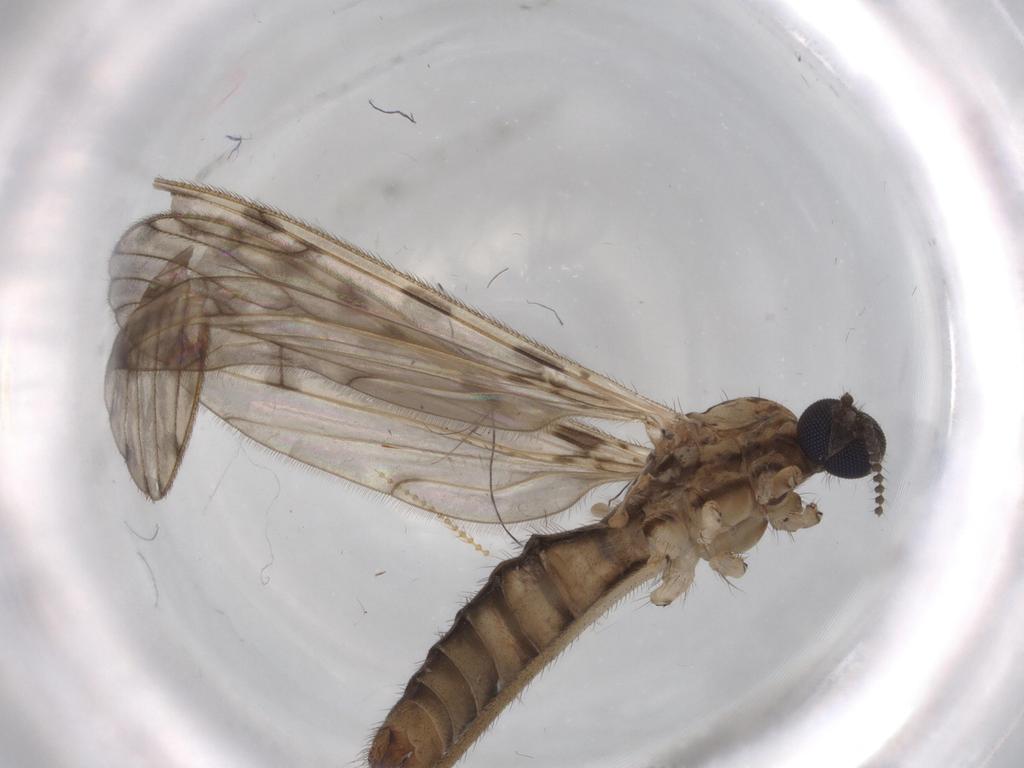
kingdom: Animalia
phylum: Arthropoda
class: Insecta
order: Diptera
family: Milichiidae
